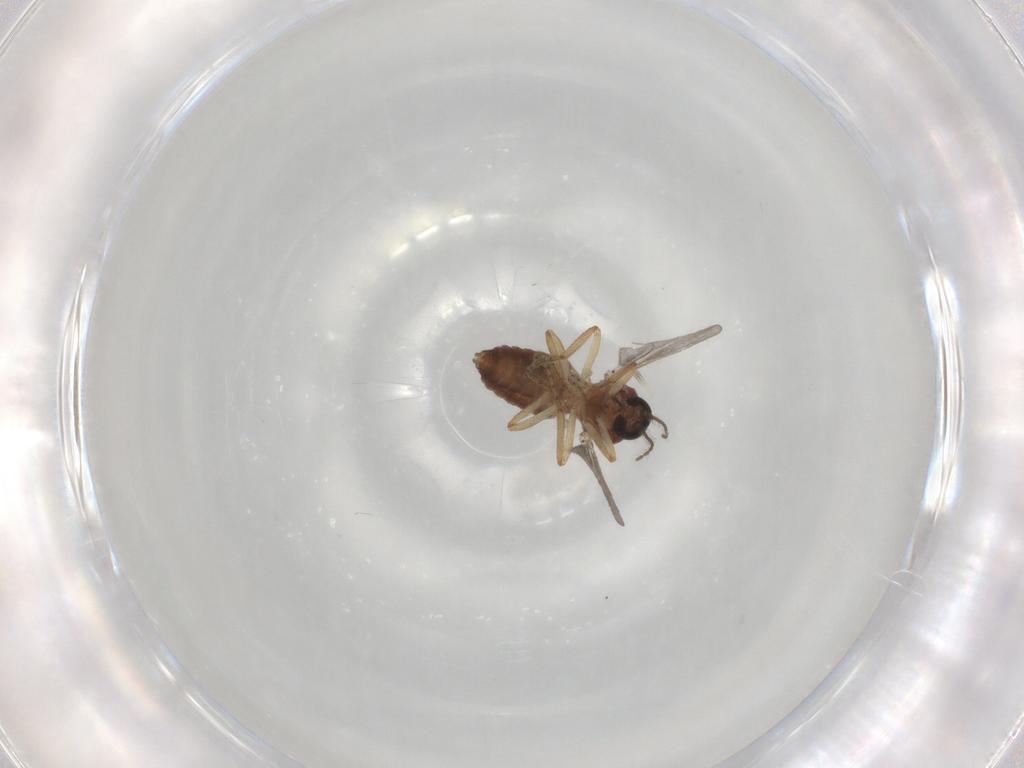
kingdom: Animalia
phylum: Arthropoda
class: Insecta
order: Diptera
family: Ceratopogonidae
